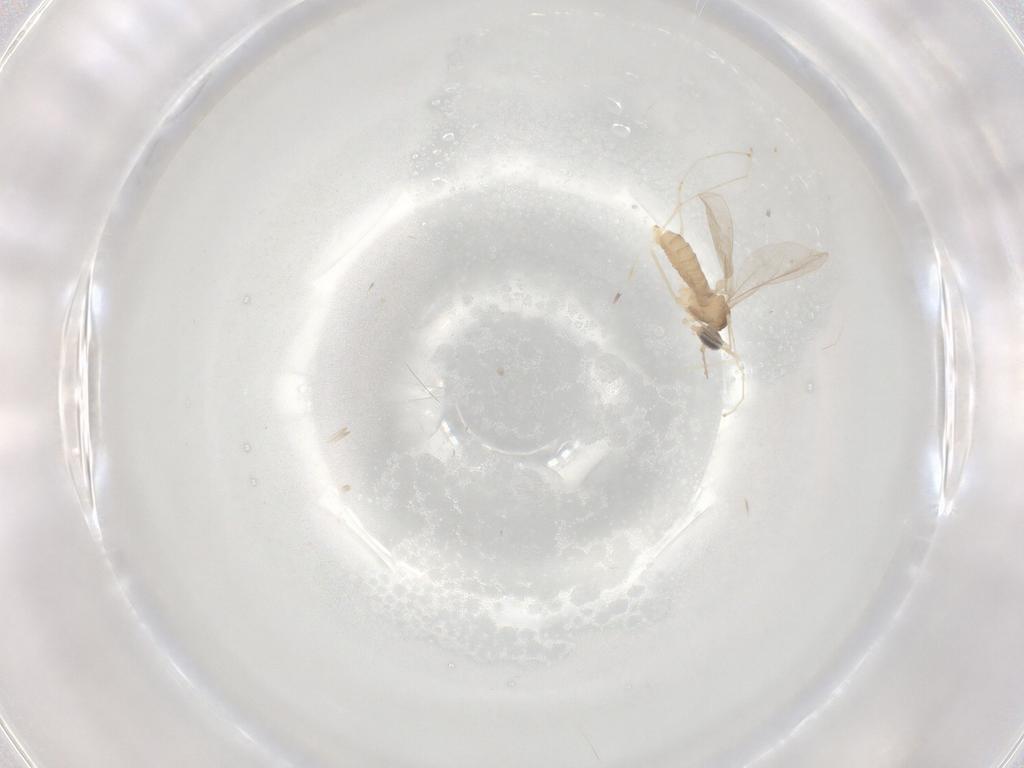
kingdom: Animalia
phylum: Arthropoda
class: Insecta
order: Diptera
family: Cecidomyiidae
